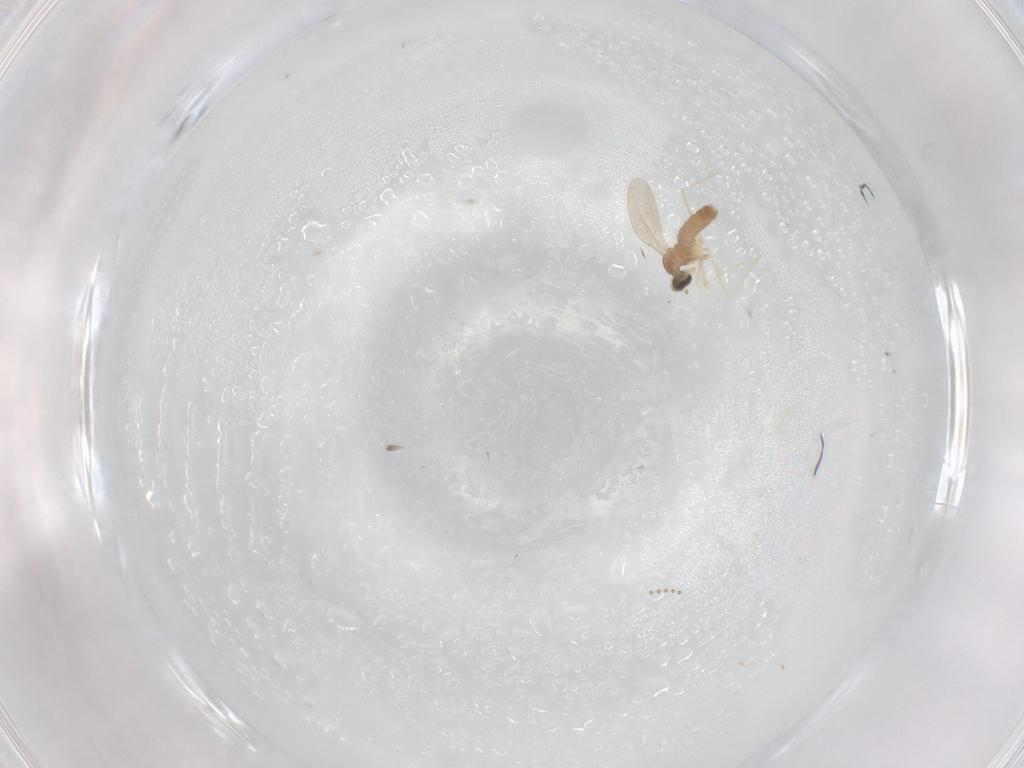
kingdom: Animalia
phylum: Arthropoda
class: Insecta
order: Diptera
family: Cecidomyiidae
